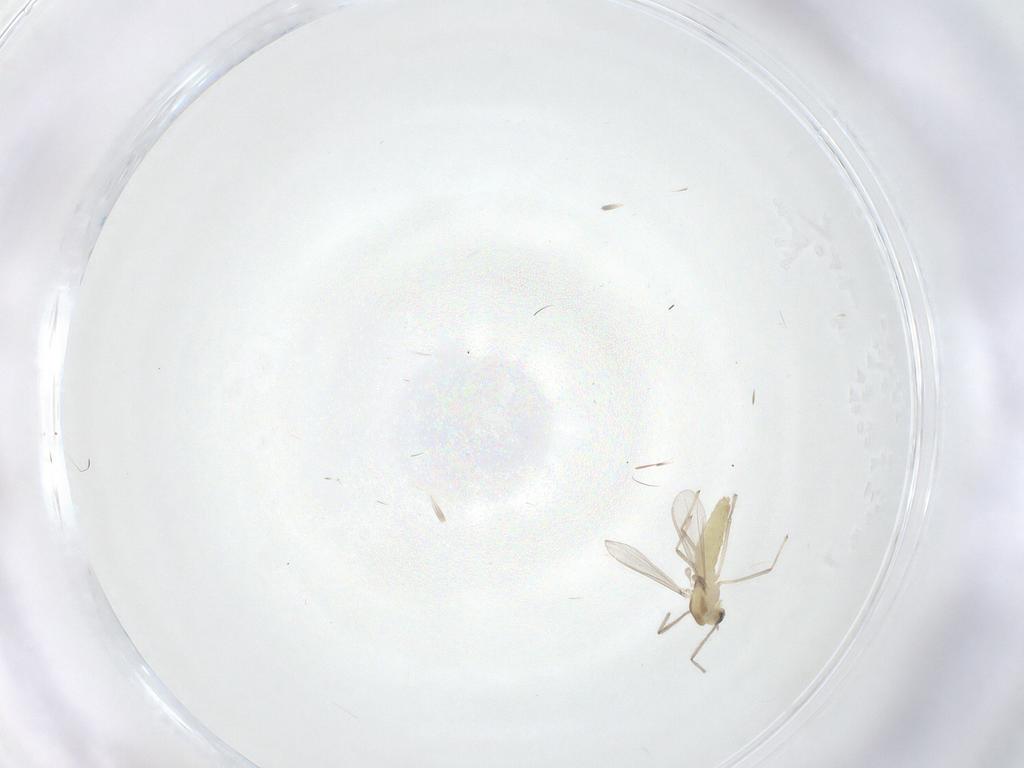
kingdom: Animalia
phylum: Arthropoda
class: Insecta
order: Diptera
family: Chironomidae
